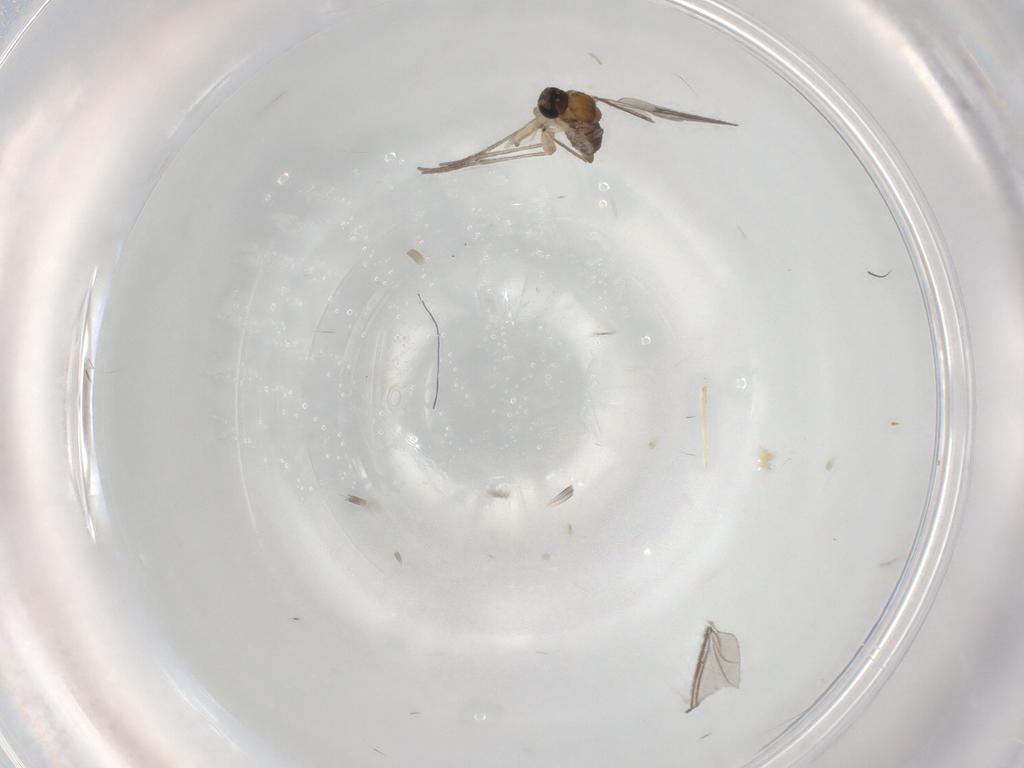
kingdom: Animalia
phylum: Arthropoda
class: Insecta
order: Diptera
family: Sciaridae
